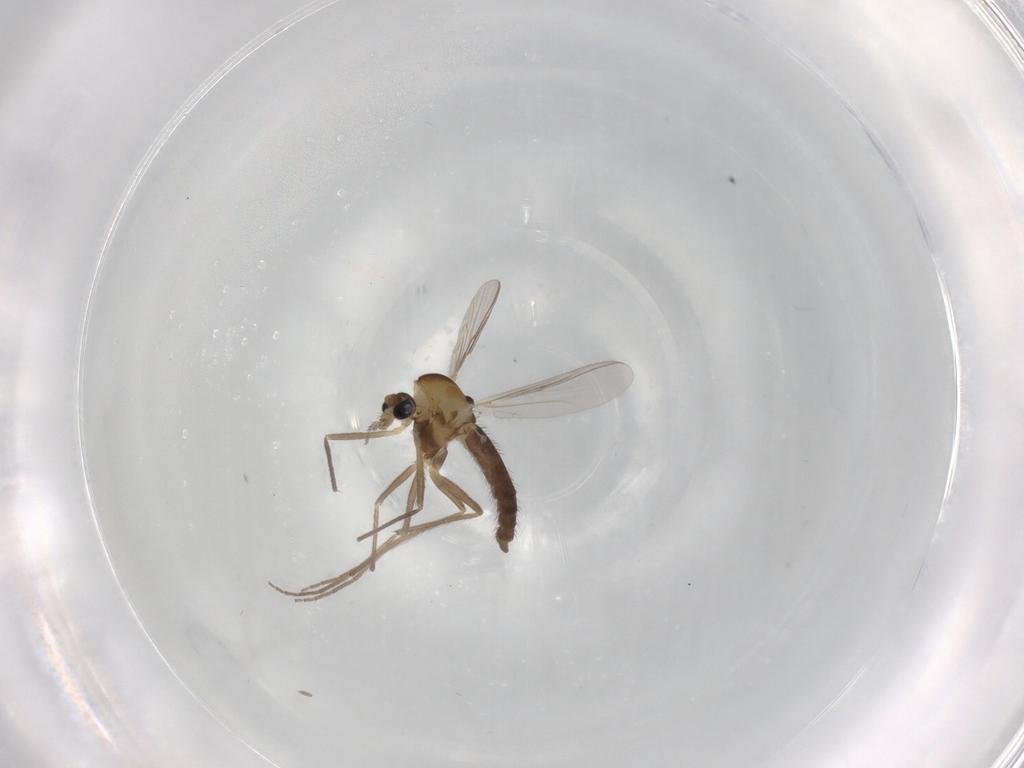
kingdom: Animalia
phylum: Arthropoda
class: Insecta
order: Diptera
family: Chironomidae
